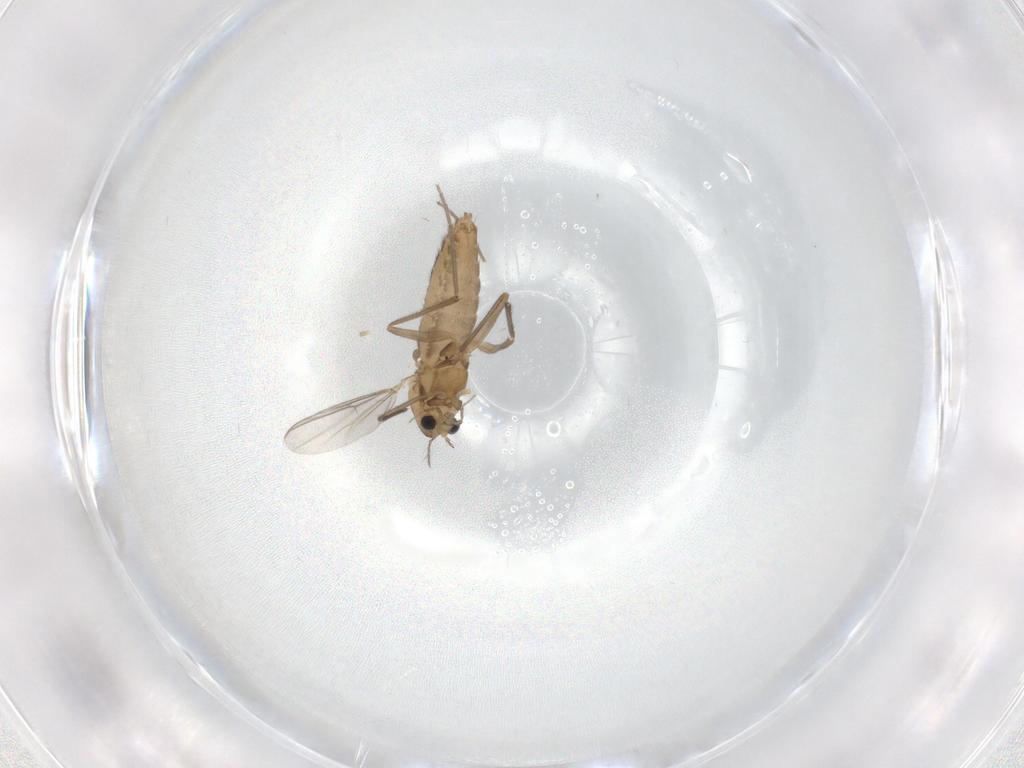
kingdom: Animalia
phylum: Arthropoda
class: Insecta
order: Diptera
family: Chironomidae
